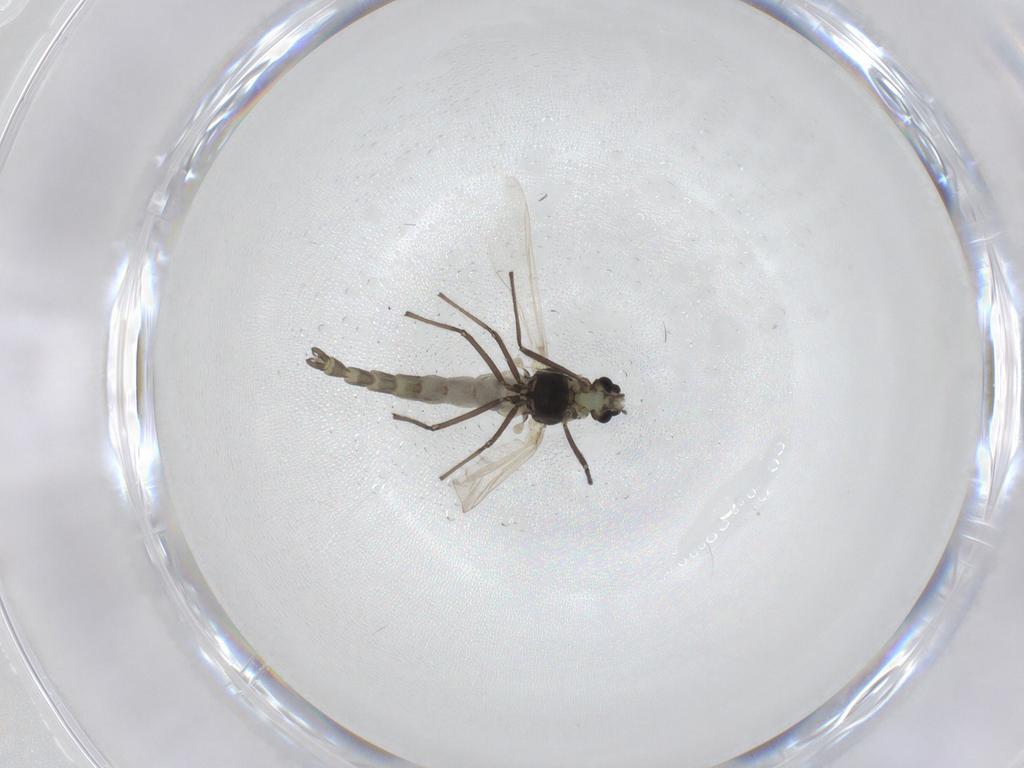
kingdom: Animalia
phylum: Arthropoda
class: Insecta
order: Diptera
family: Chironomidae
